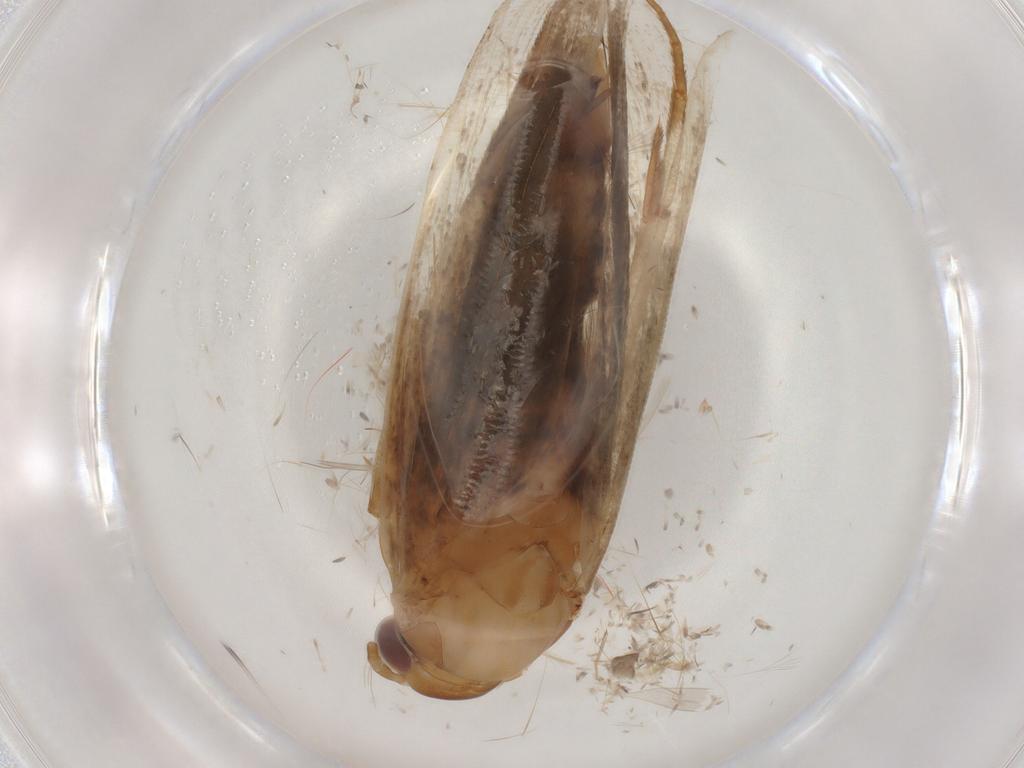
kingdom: Animalia
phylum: Arthropoda
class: Insecta
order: Lepidoptera
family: Gelechiidae
